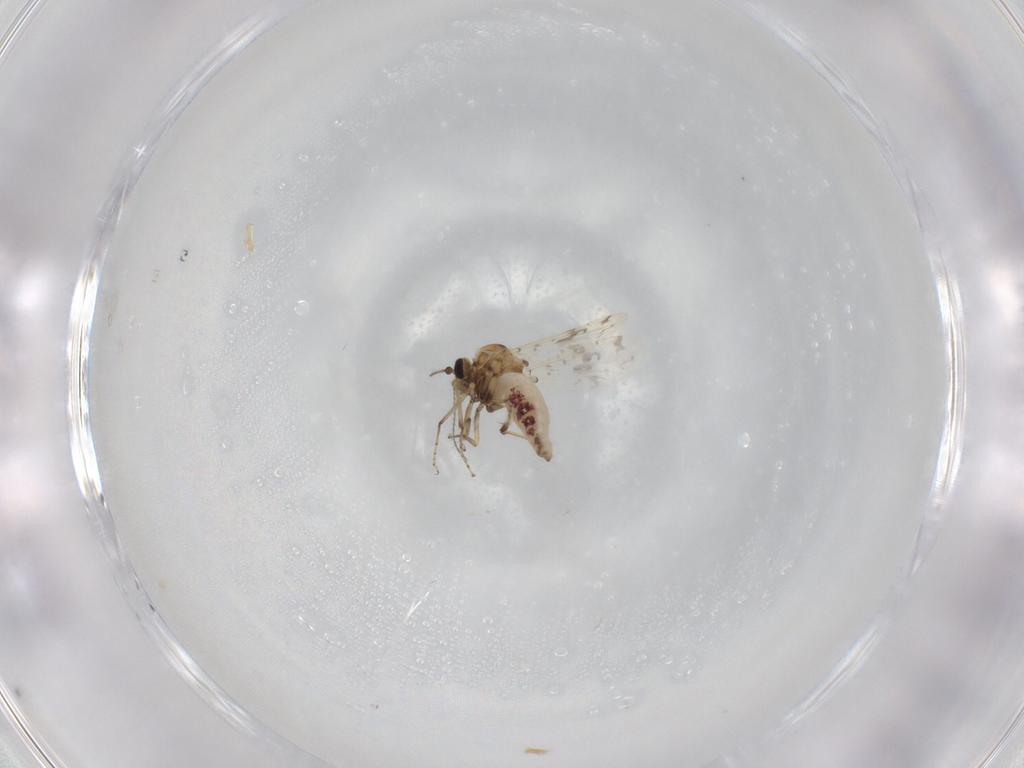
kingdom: Animalia
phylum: Arthropoda
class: Insecta
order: Diptera
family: Ceratopogonidae
